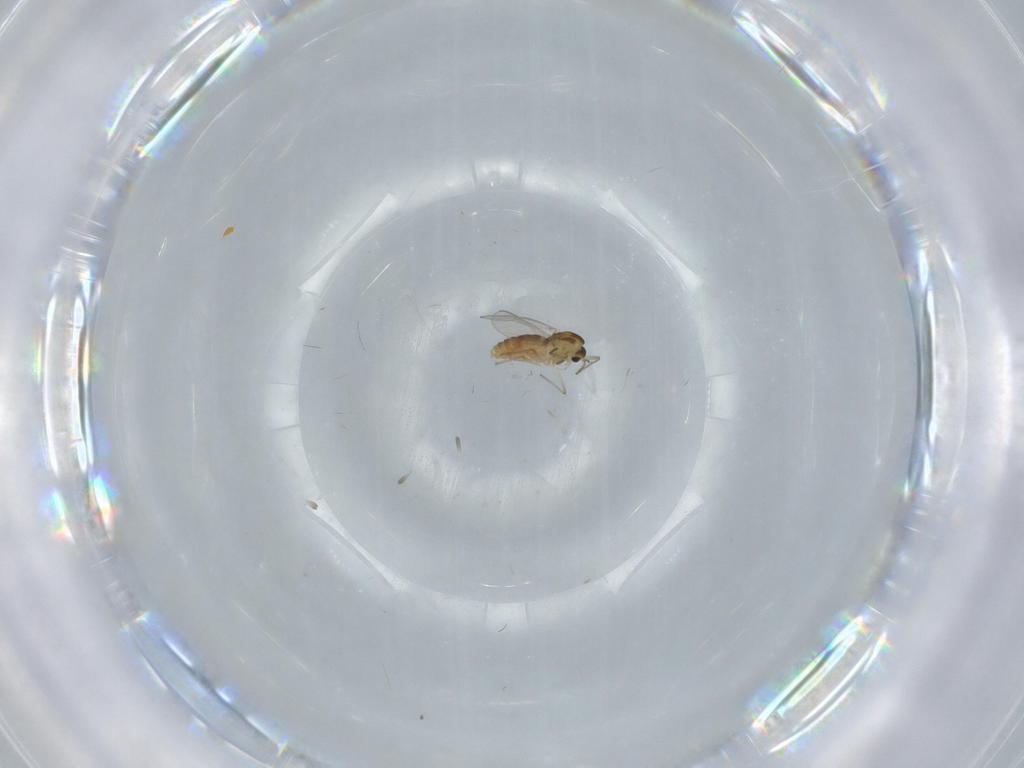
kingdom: Animalia
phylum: Arthropoda
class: Insecta
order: Diptera
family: Chironomidae
